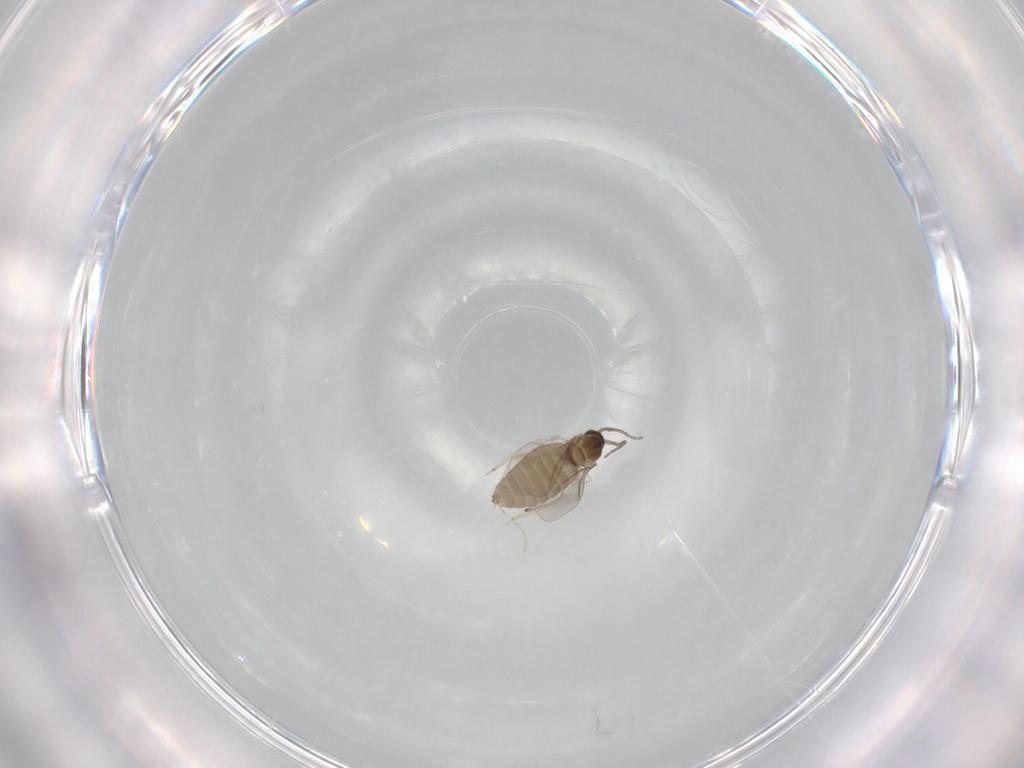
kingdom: Animalia
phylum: Arthropoda
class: Insecta
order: Diptera
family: Cecidomyiidae
